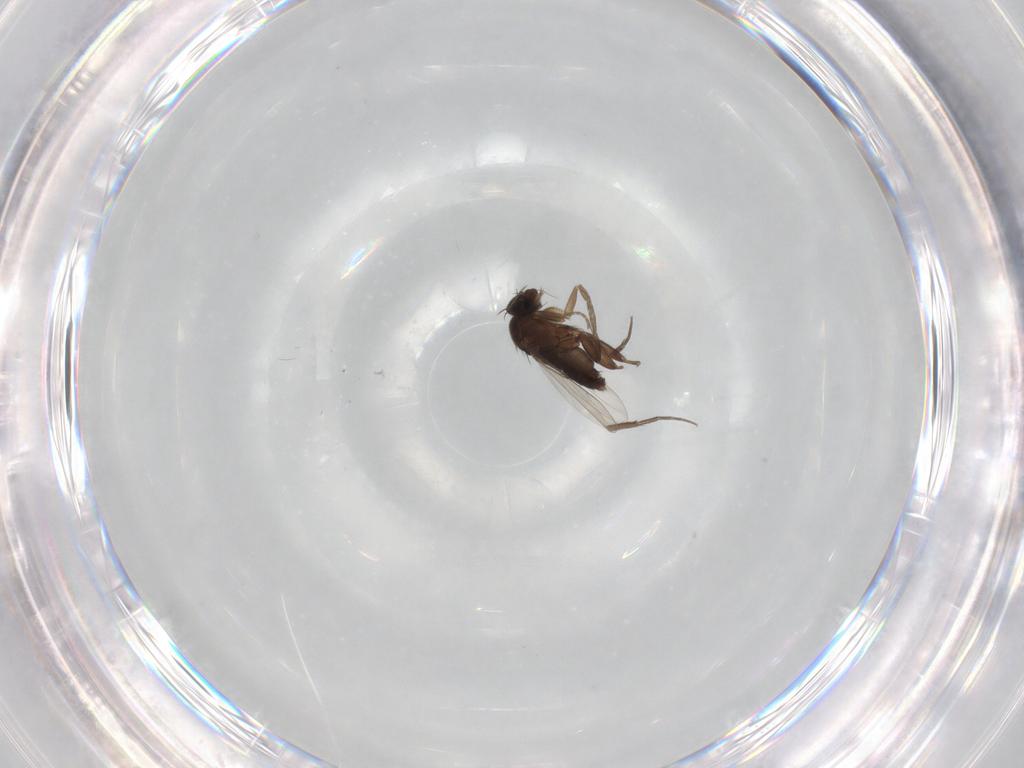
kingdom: Animalia
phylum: Arthropoda
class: Insecta
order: Diptera
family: Phoridae
